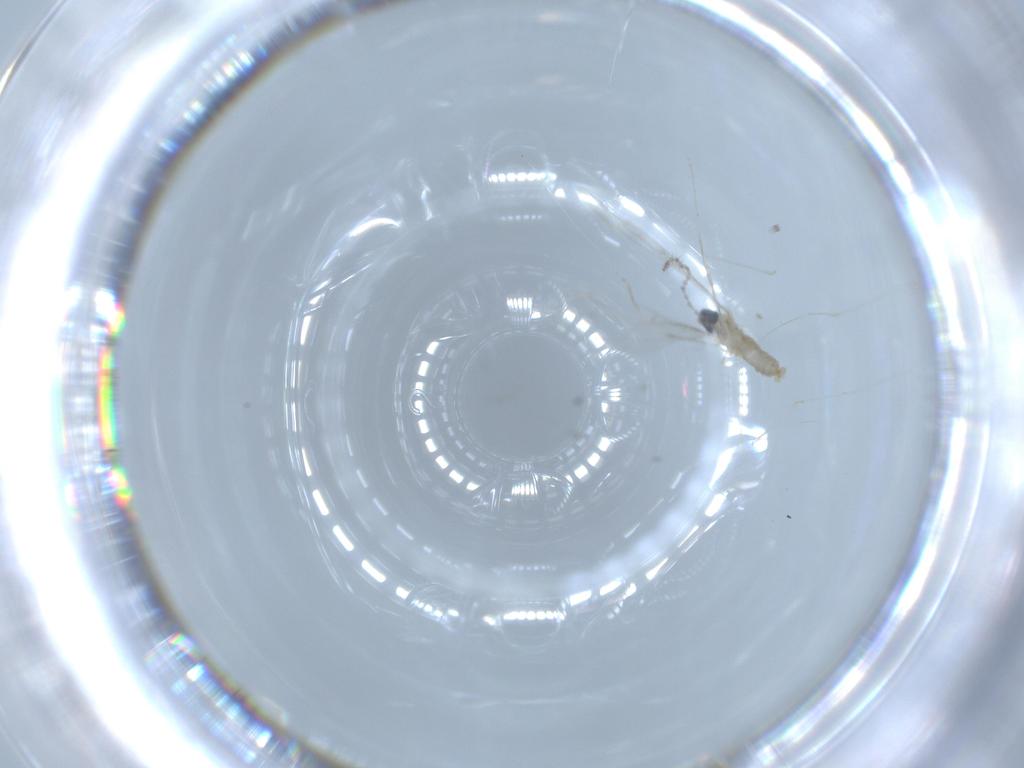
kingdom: Animalia
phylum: Arthropoda
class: Insecta
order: Diptera
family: Cecidomyiidae
